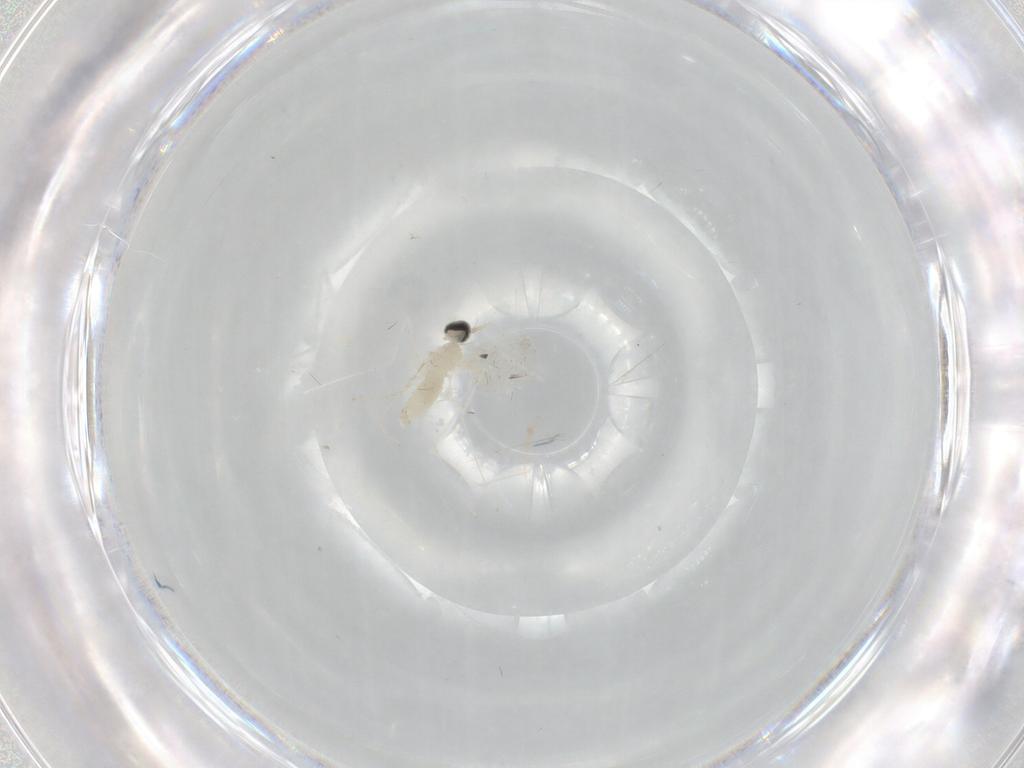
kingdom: Animalia
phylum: Arthropoda
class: Insecta
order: Diptera
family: Cecidomyiidae
